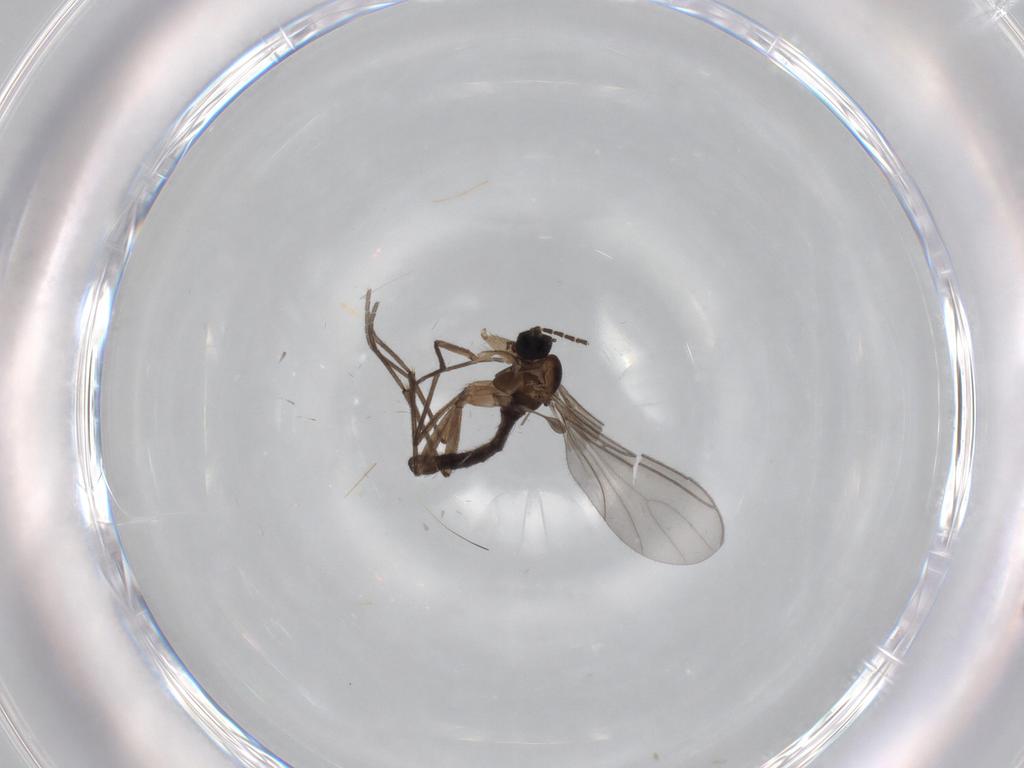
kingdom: Animalia
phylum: Arthropoda
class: Insecta
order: Diptera
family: Sciaridae
